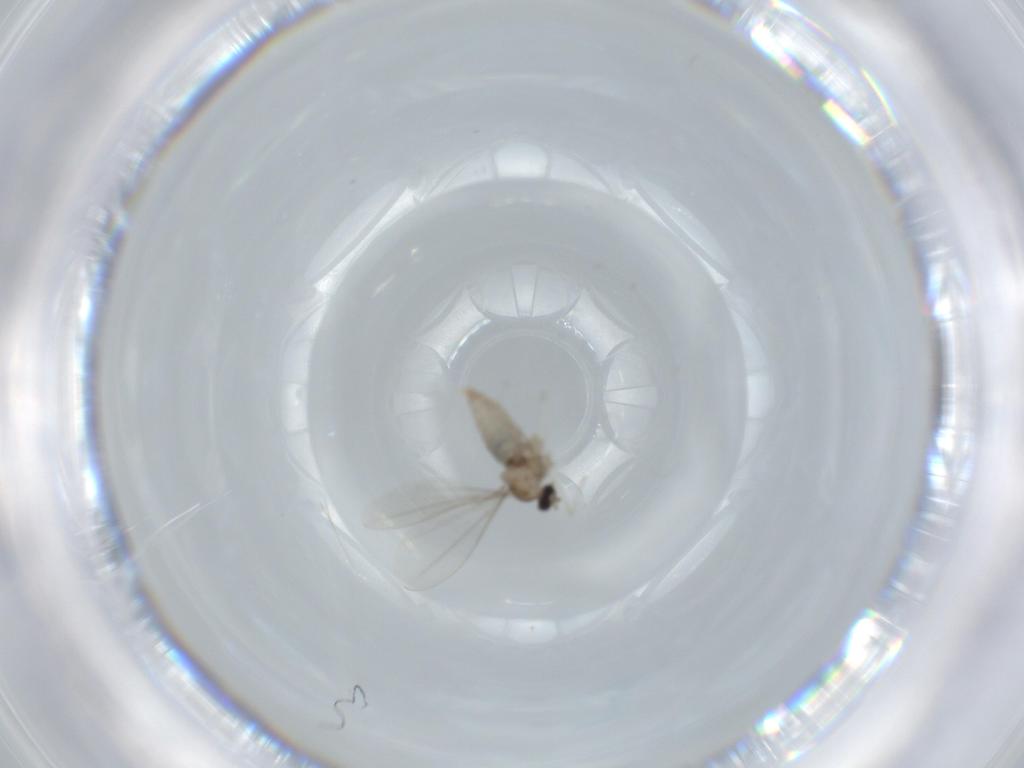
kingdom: Animalia
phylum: Arthropoda
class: Insecta
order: Diptera
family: Cecidomyiidae
